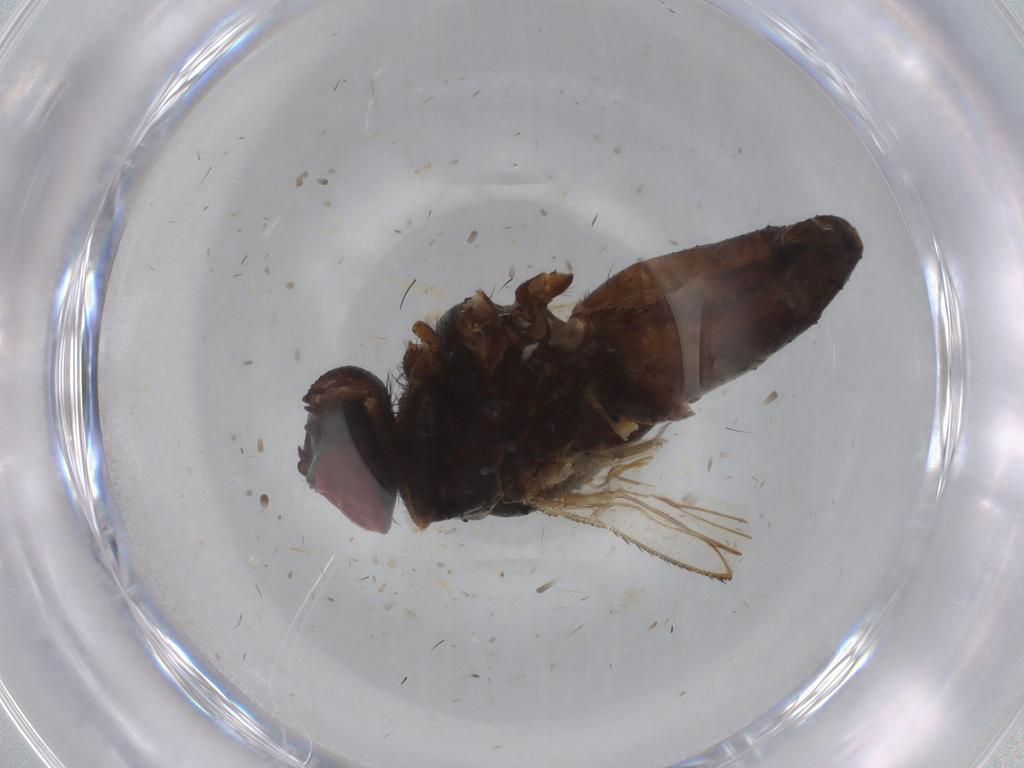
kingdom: Animalia
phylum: Arthropoda
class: Insecta
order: Diptera
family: Muscidae
